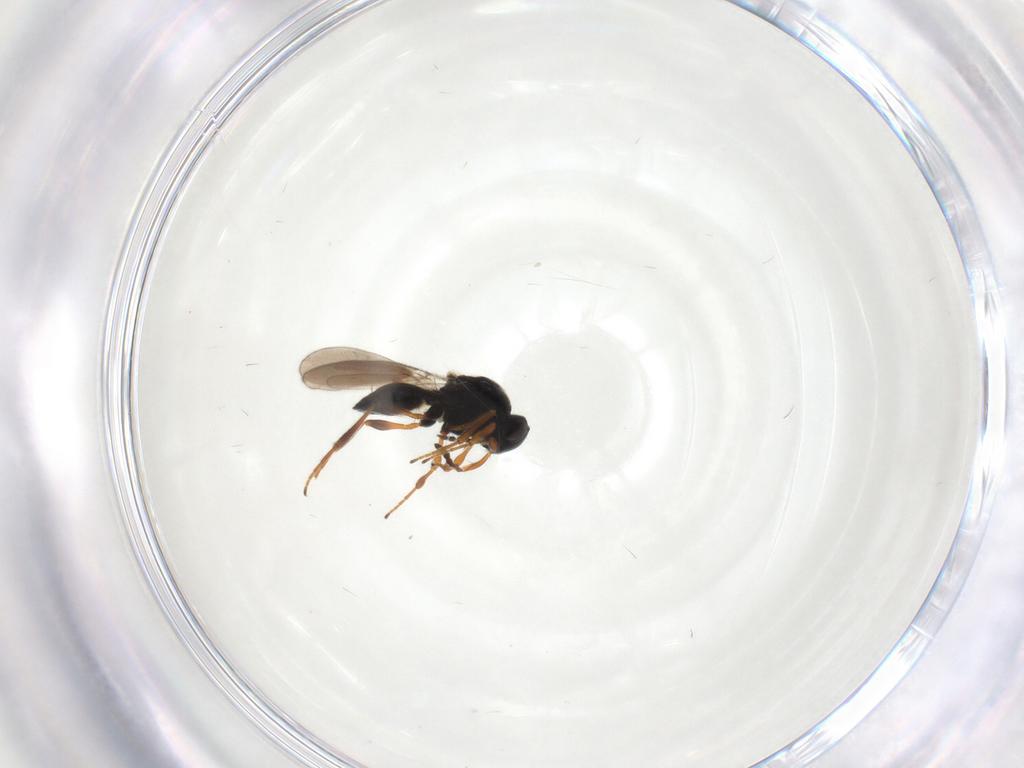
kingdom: Animalia
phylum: Arthropoda
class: Insecta
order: Hymenoptera
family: Platygastridae
